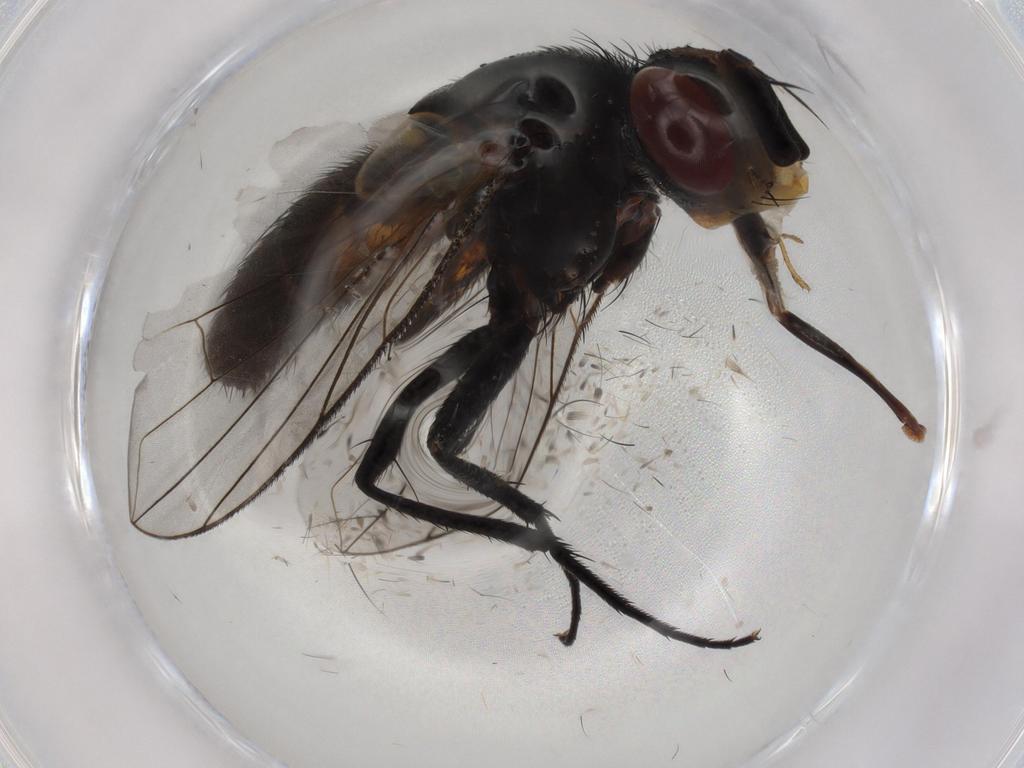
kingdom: Animalia
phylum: Arthropoda
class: Insecta
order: Diptera
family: Tachinidae
